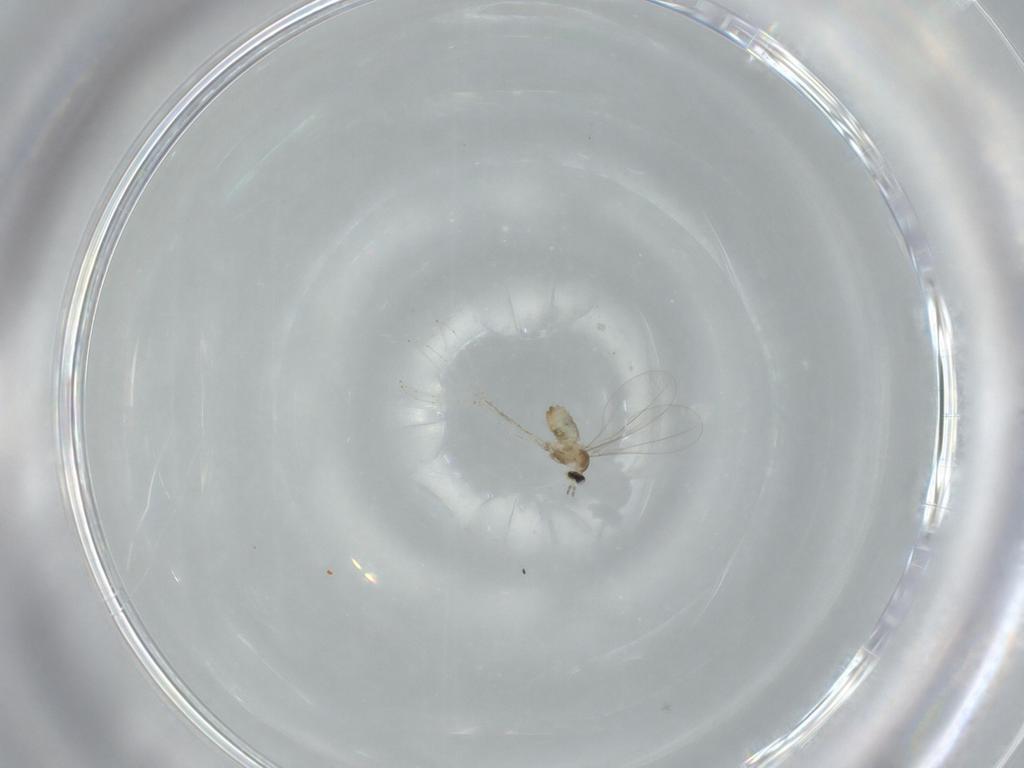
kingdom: Animalia
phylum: Arthropoda
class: Insecta
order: Diptera
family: Cecidomyiidae
